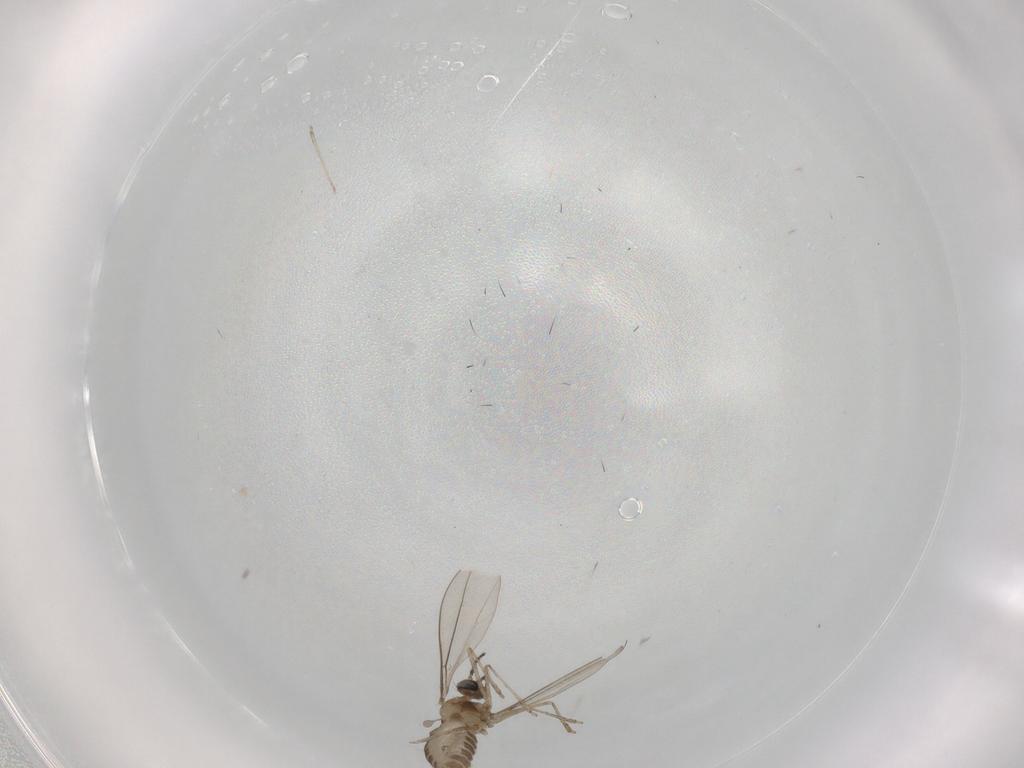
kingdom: Animalia
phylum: Arthropoda
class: Insecta
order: Diptera
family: Cecidomyiidae
